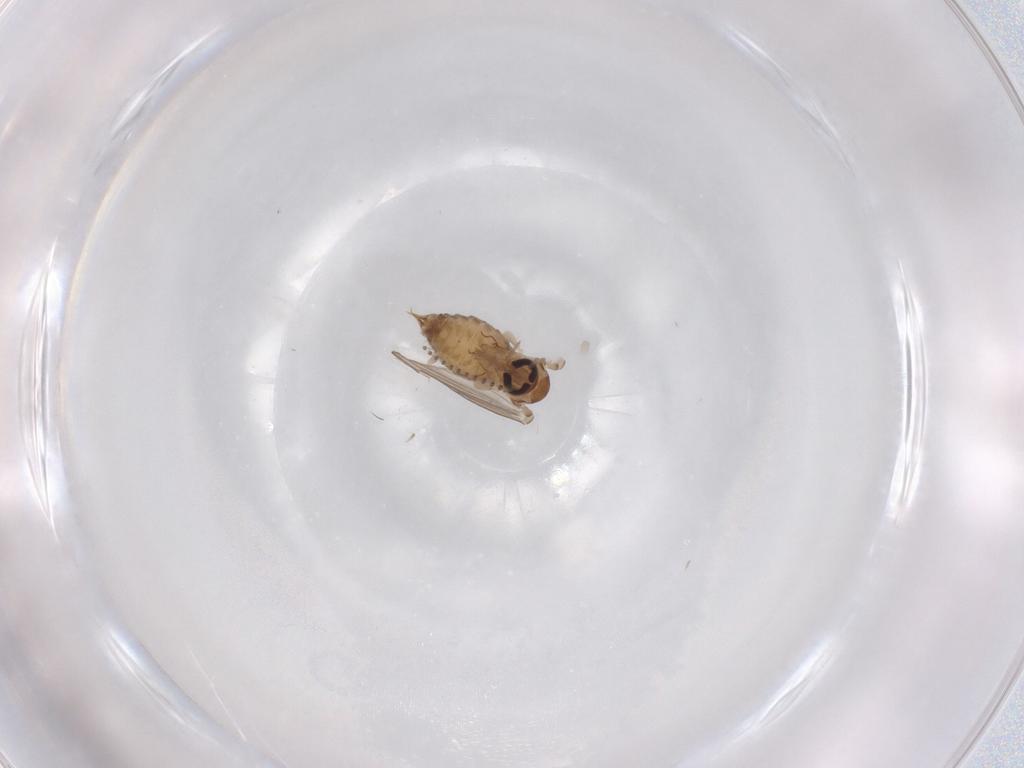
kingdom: Animalia
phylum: Arthropoda
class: Insecta
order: Diptera
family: Psychodidae
